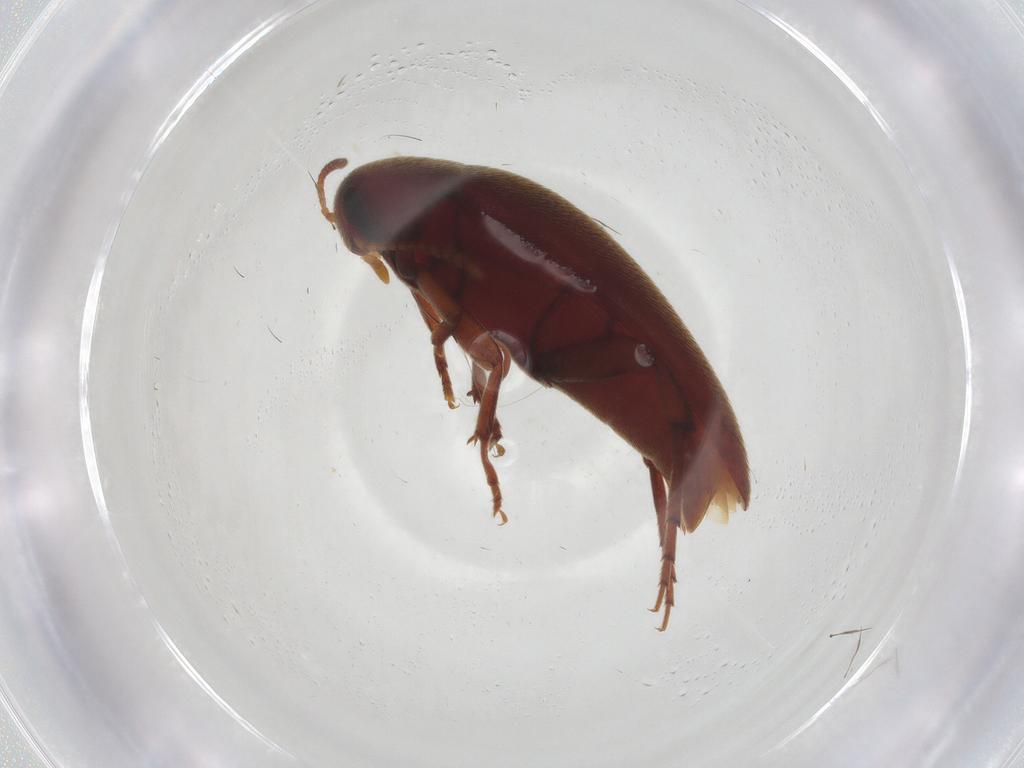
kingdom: Animalia
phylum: Arthropoda
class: Insecta
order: Coleoptera
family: Melandryidae
